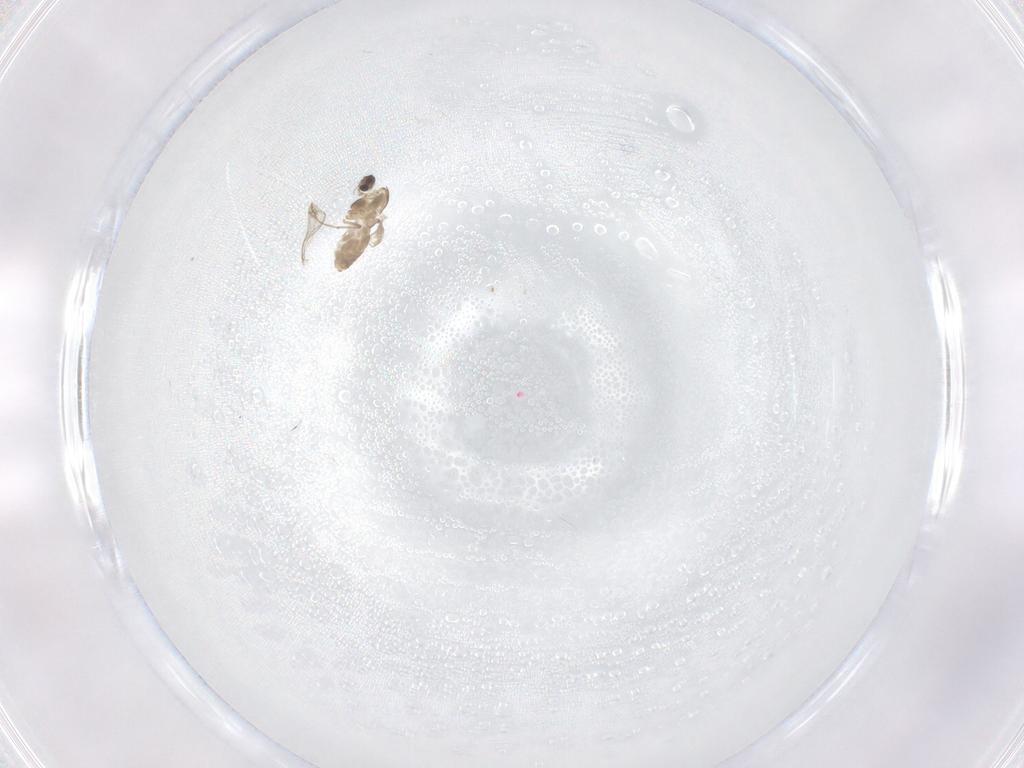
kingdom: Animalia
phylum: Arthropoda
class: Insecta
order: Diptera
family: Chironomidae
